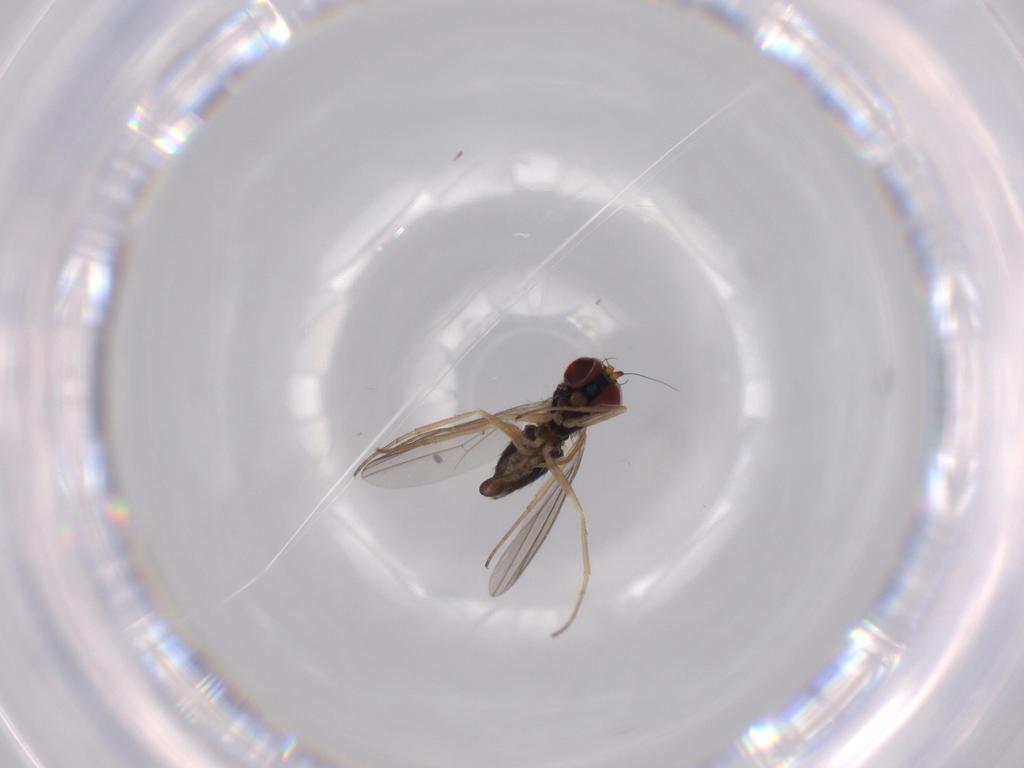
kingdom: Animalia
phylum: Arthropoda
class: Insecta
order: Diptera
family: Dolichopodidae
